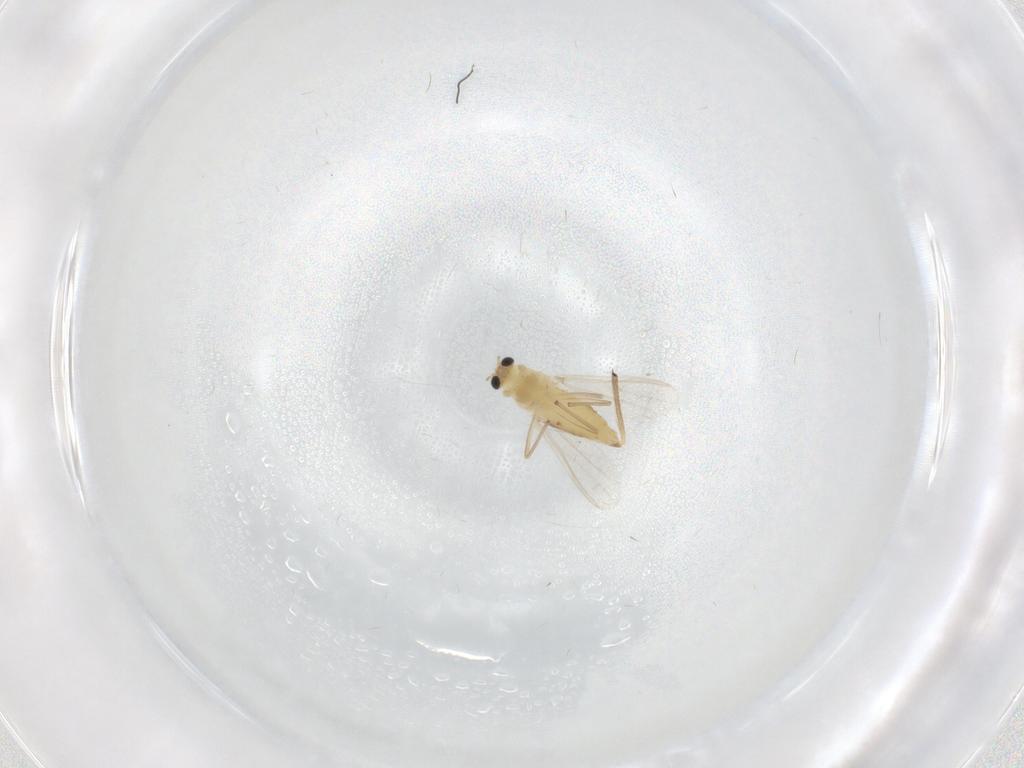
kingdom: Animalia
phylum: Arthropoda
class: Insecta
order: Diptera
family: Chironomidae
